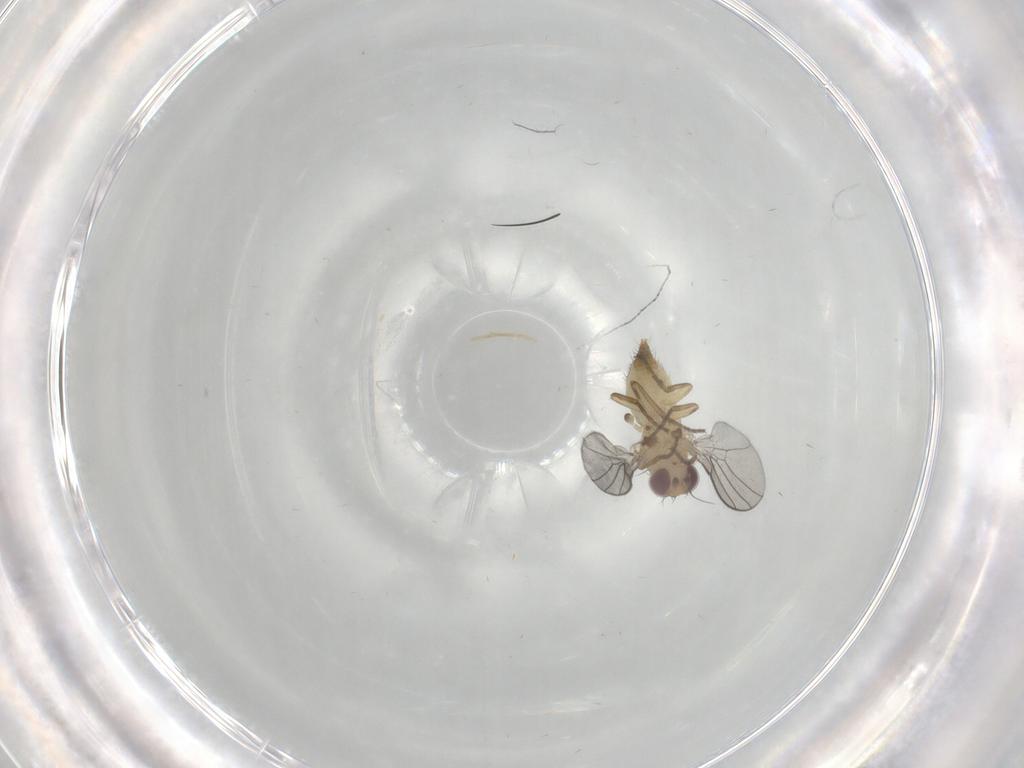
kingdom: Animalia
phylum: Arthropoda
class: Insecta
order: Diptera
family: Agromyzidae
